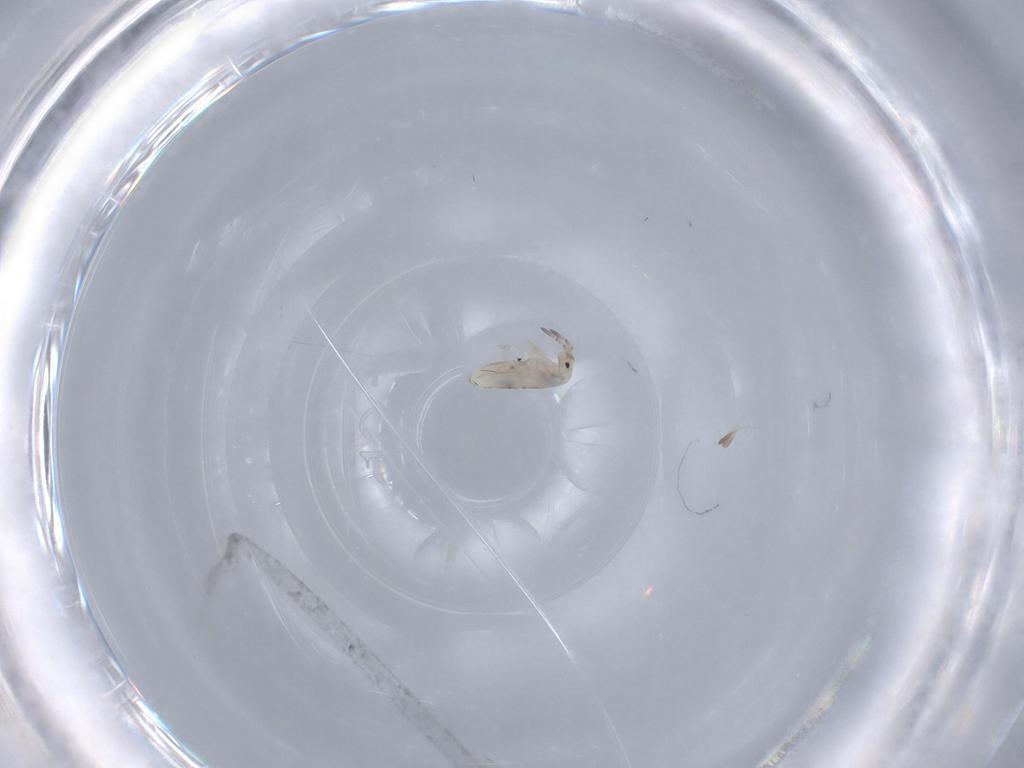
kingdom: Animalia
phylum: Arthropoda
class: Collembola
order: Entomobryomorpha
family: Entomobryidae
